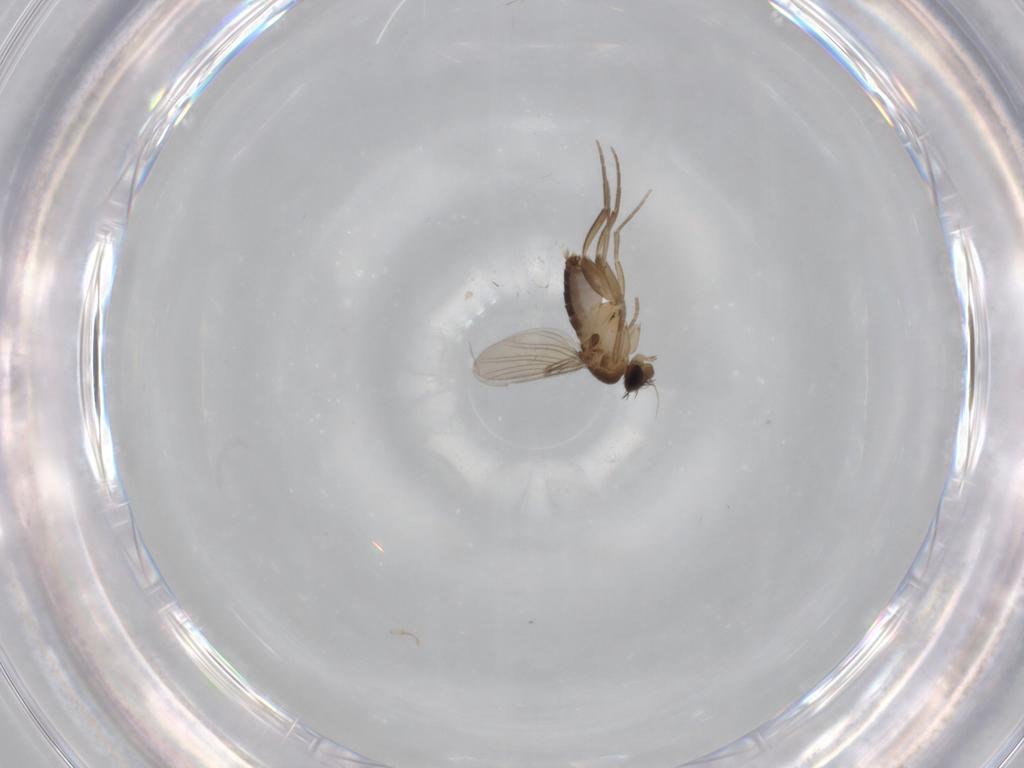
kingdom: Animalia
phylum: Arthropoda
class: Insecta
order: Diptera
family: Phoridae
